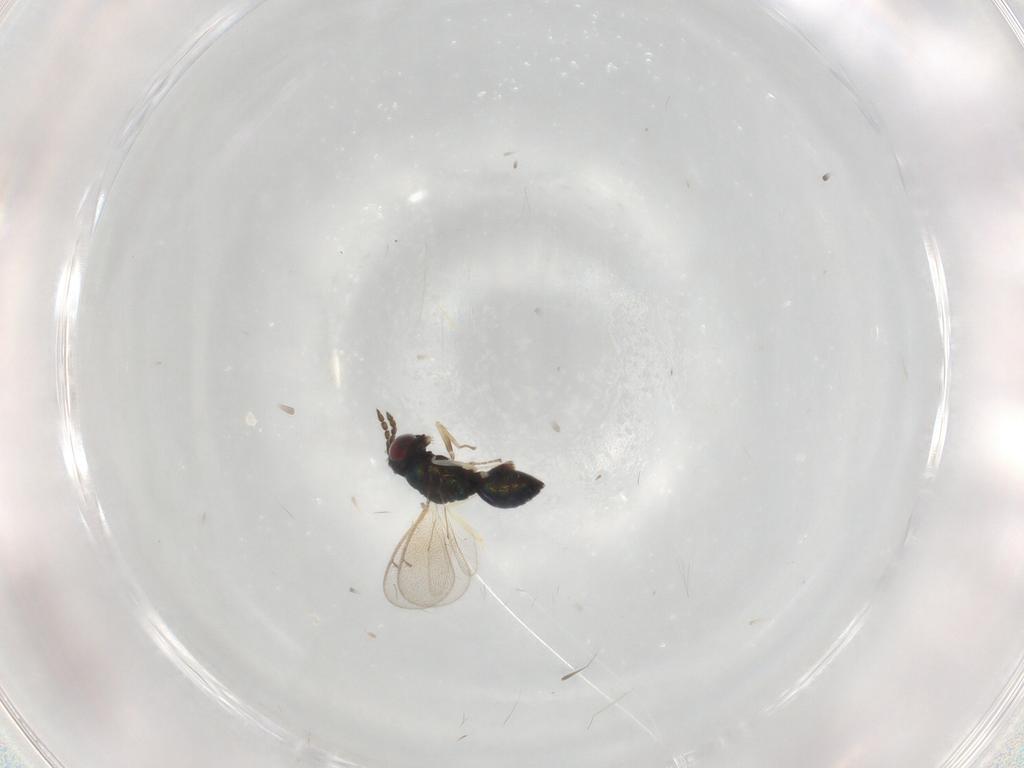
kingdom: Animalia
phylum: Arthropoda
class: Insecta
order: Hymenoptera
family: Eulophidae
